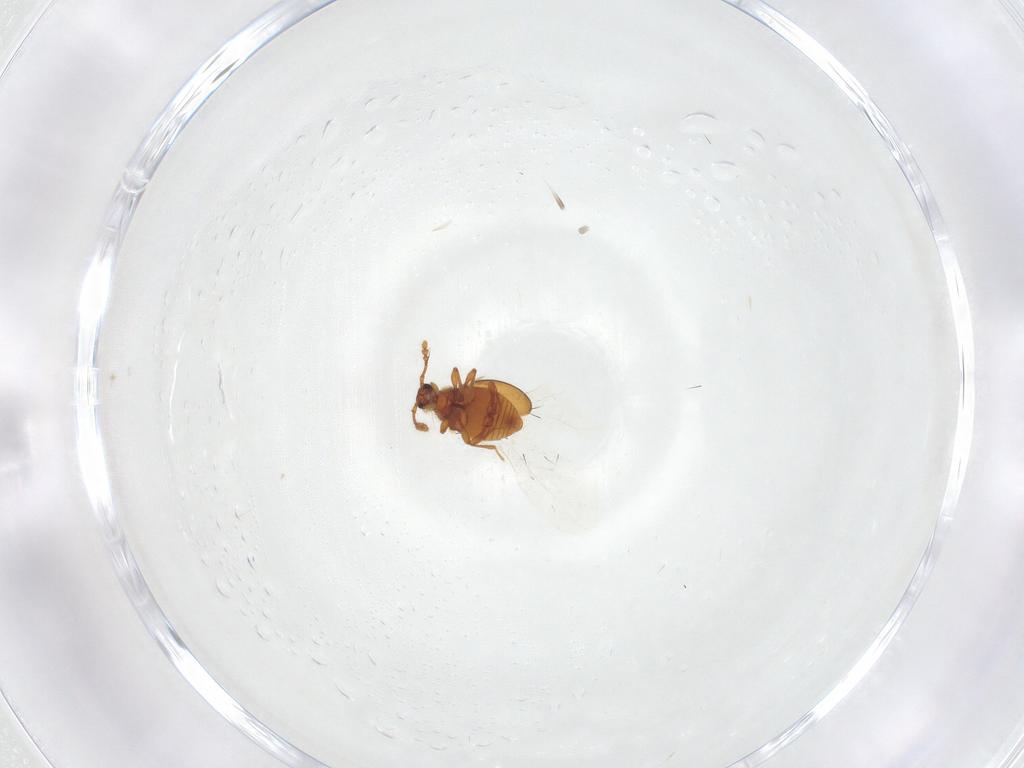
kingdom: Animalia
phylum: Arthropoda
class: Insecta
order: Coleoptera
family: Staphylinidae
